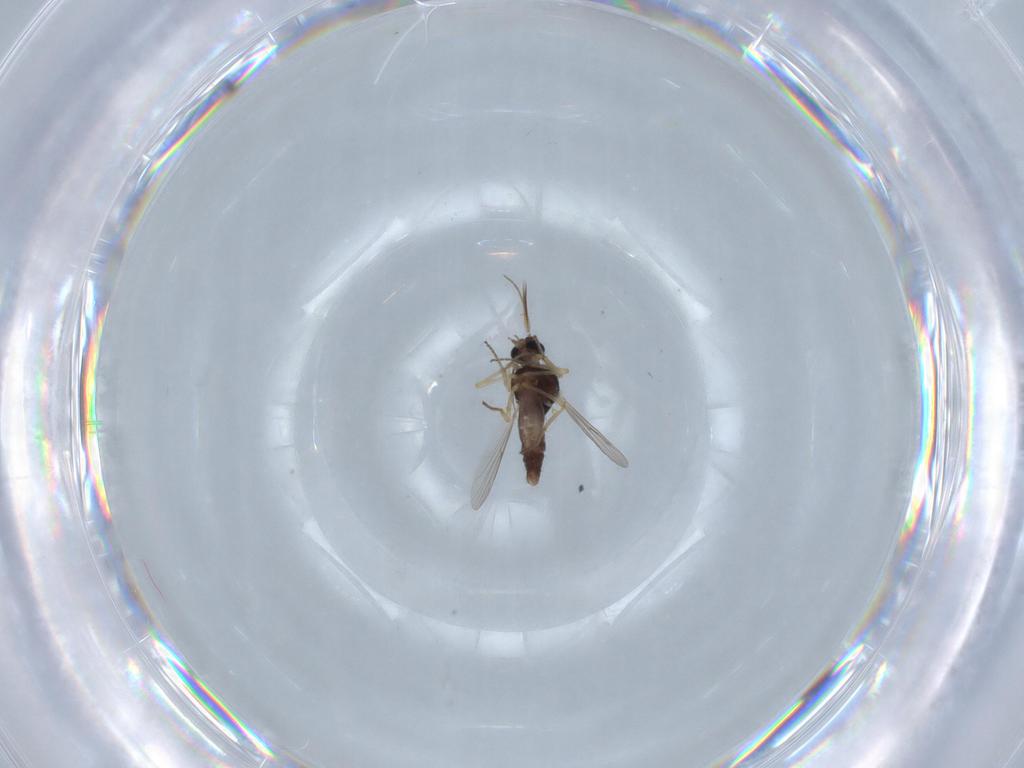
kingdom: Animalia
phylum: Arthropoda
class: Insecta
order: Diptera
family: Ceratopogonidae
